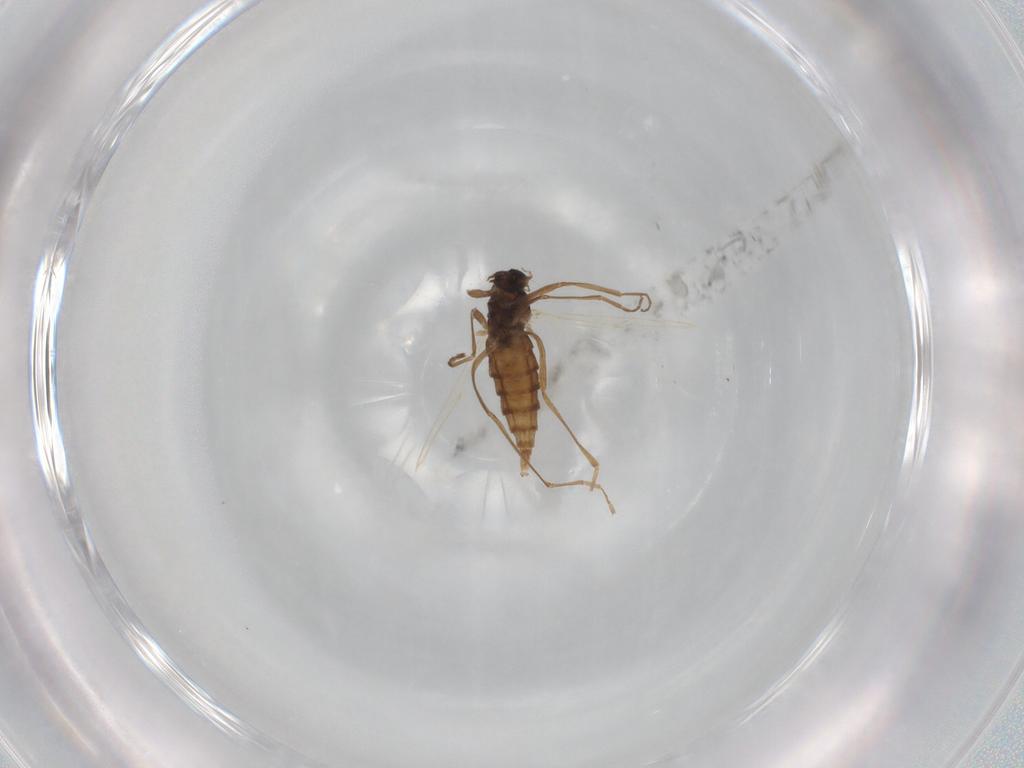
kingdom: Animalia
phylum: Arthropoda
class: Insecta
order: Diptera
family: Cecidomyiidae
